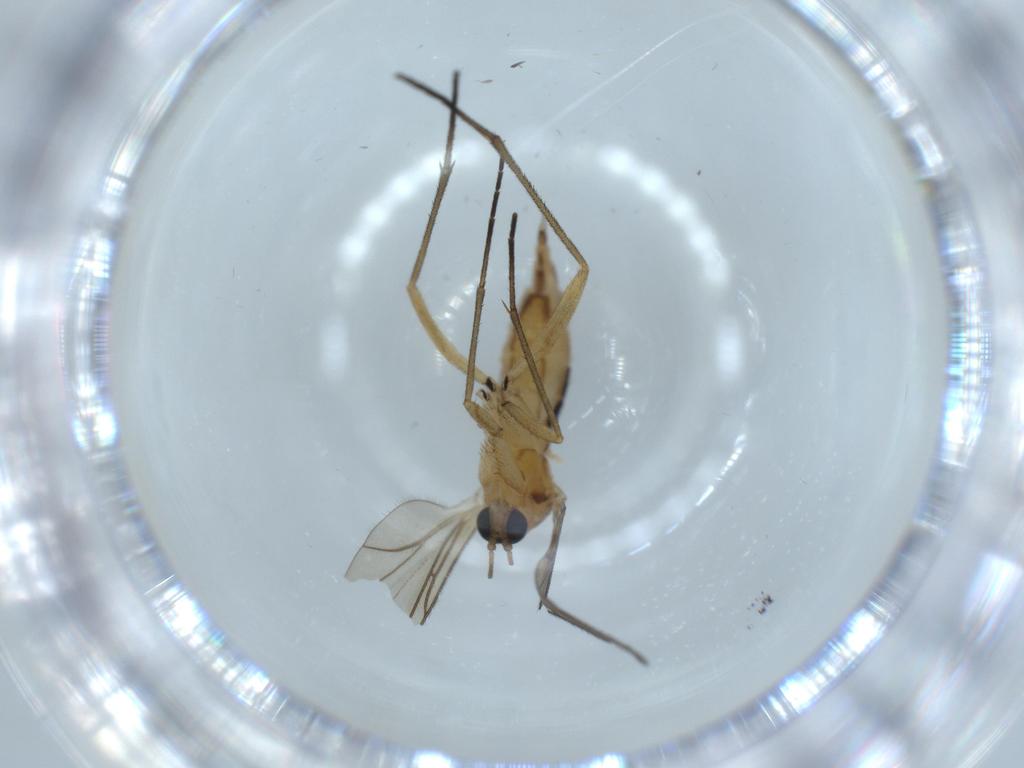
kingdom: Animalia
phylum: Arthropoda
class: Insecta
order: Diptera
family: Sciaridae
